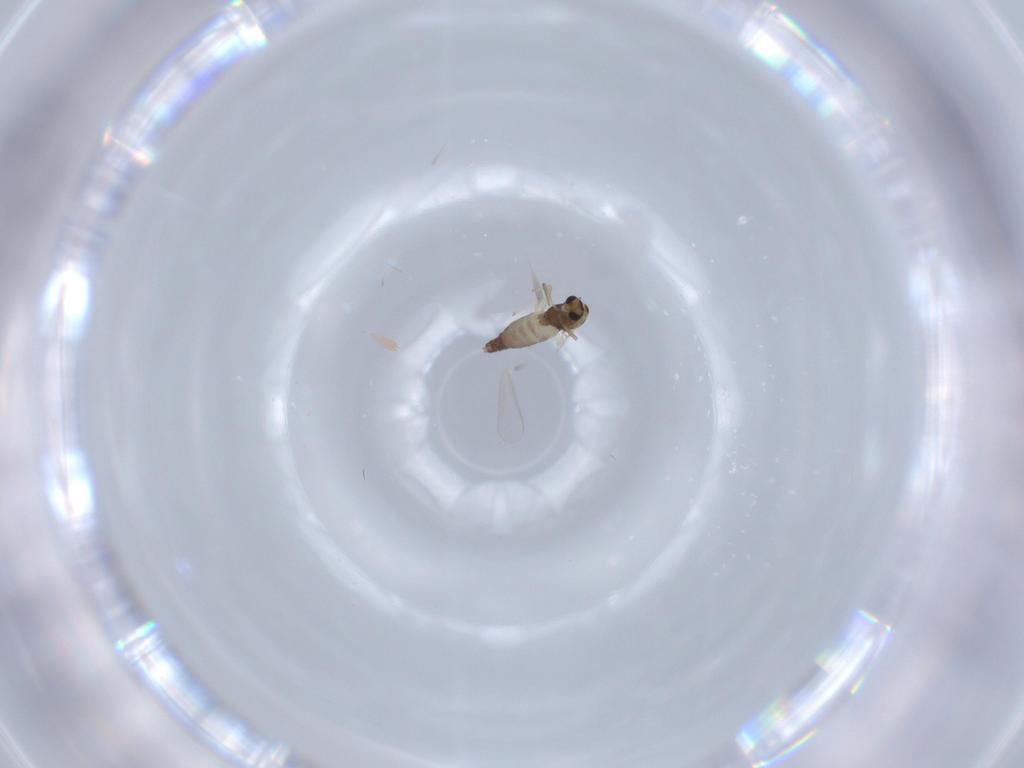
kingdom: Animalia
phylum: Arthropoda
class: Insecta
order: Diptera
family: Chironomidae
